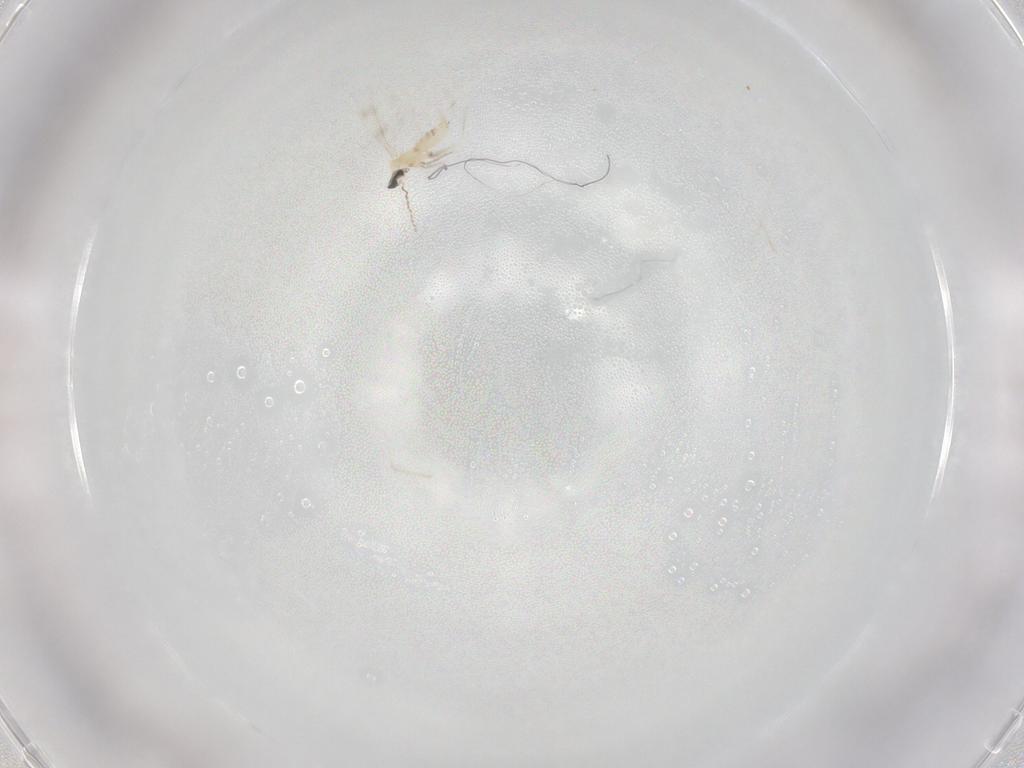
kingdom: Animalia
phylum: Arthropoda
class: Insecta
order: Diptera
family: Cecidomyiidae
